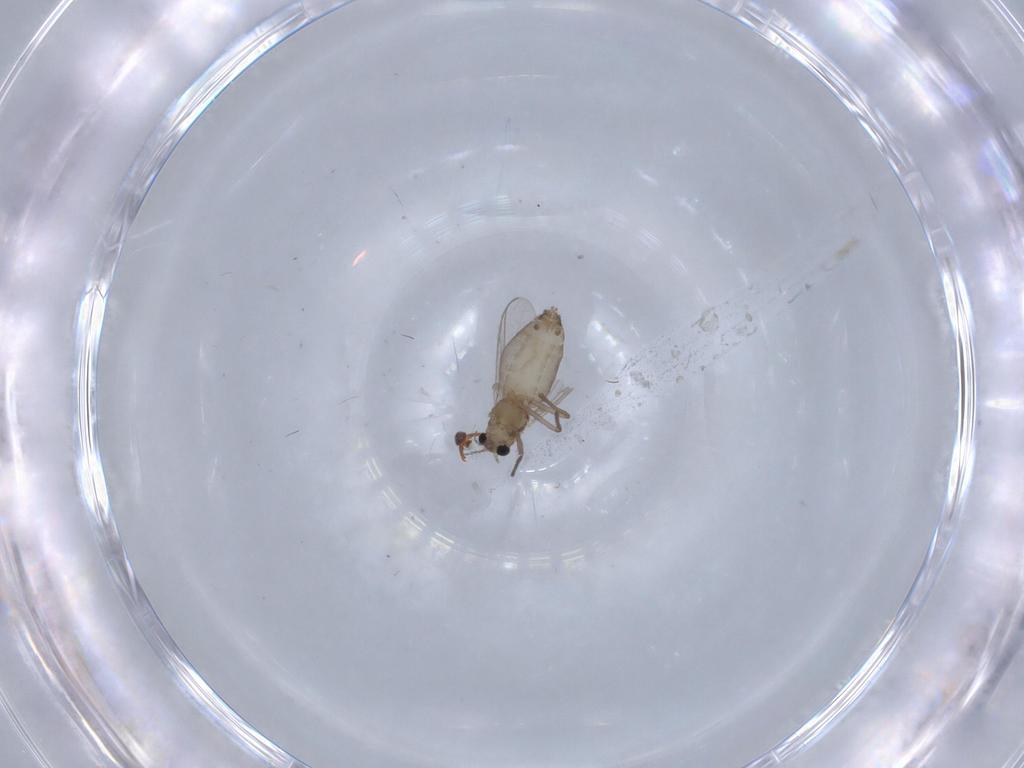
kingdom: Animalia
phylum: Arthropoda
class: Insecta
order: Diptera
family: Chironomidae
